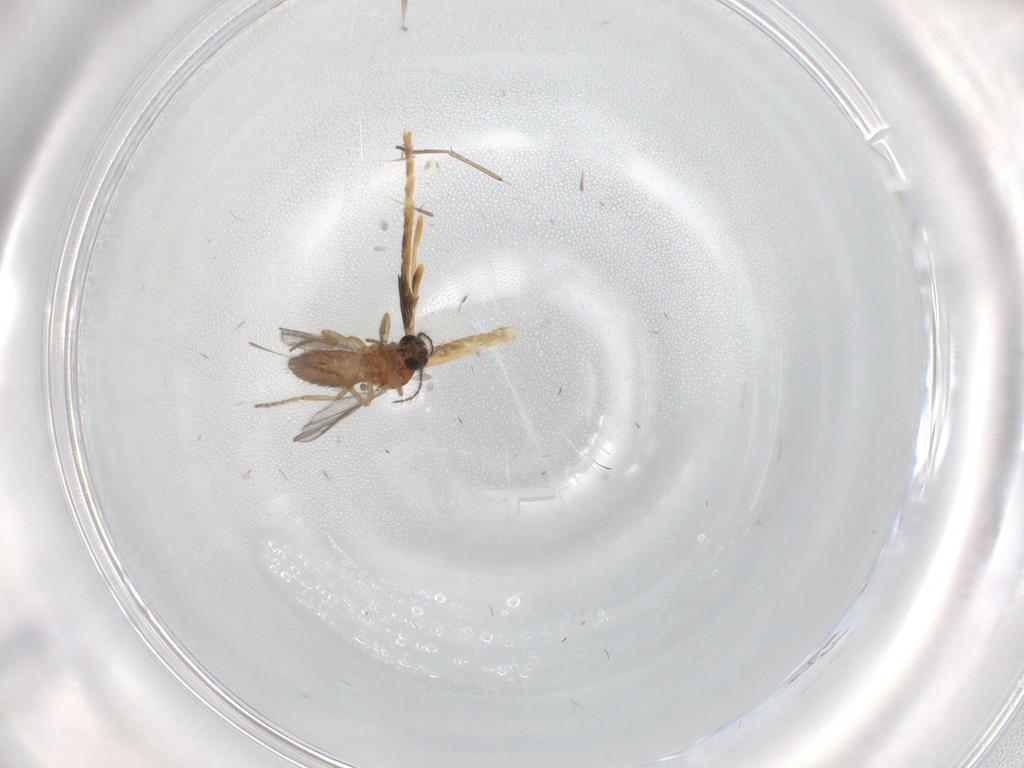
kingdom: Animalia
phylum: Arthropoda
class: Insecta
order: Diptera
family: Ceratopogonidae
